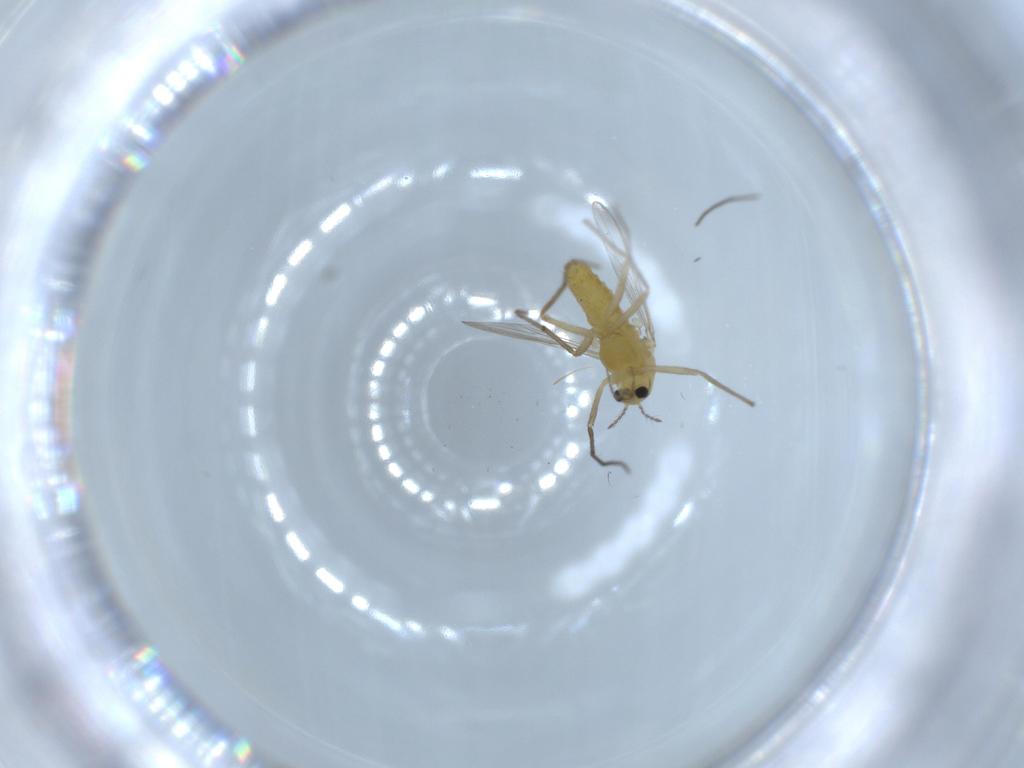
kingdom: Animalia
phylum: Arthropoda
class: Insecta
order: Diptera
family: Chironomidae
